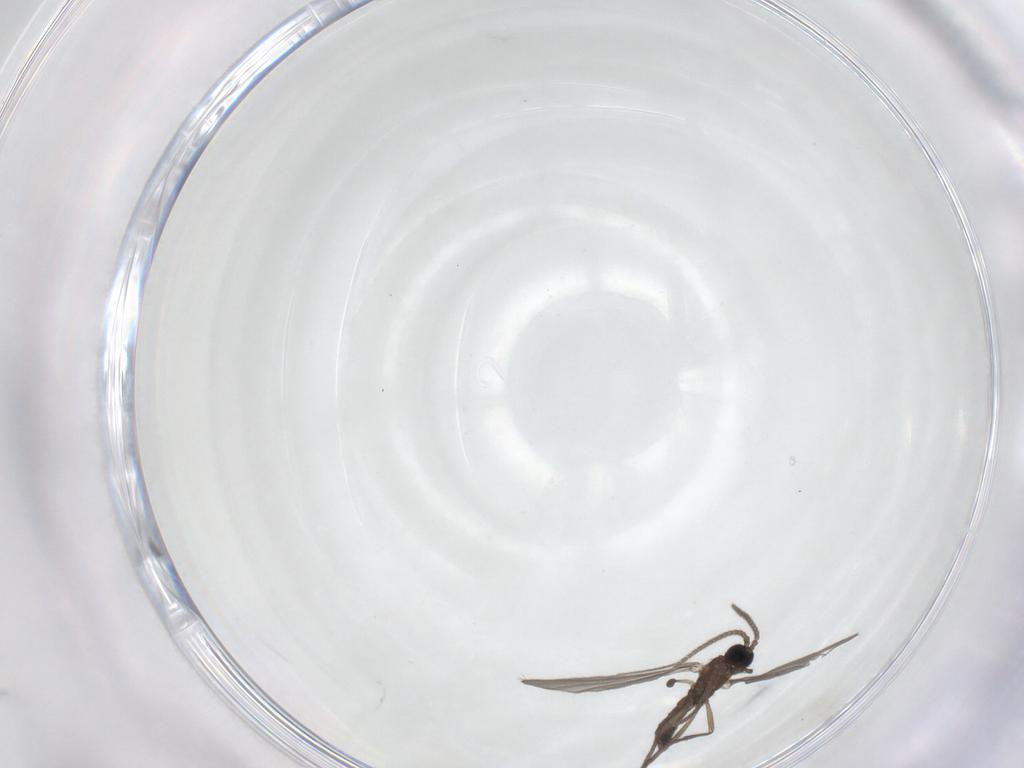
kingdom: Animalia
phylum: Arthropoda
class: Insecta
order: Diptera
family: Sciaridae
